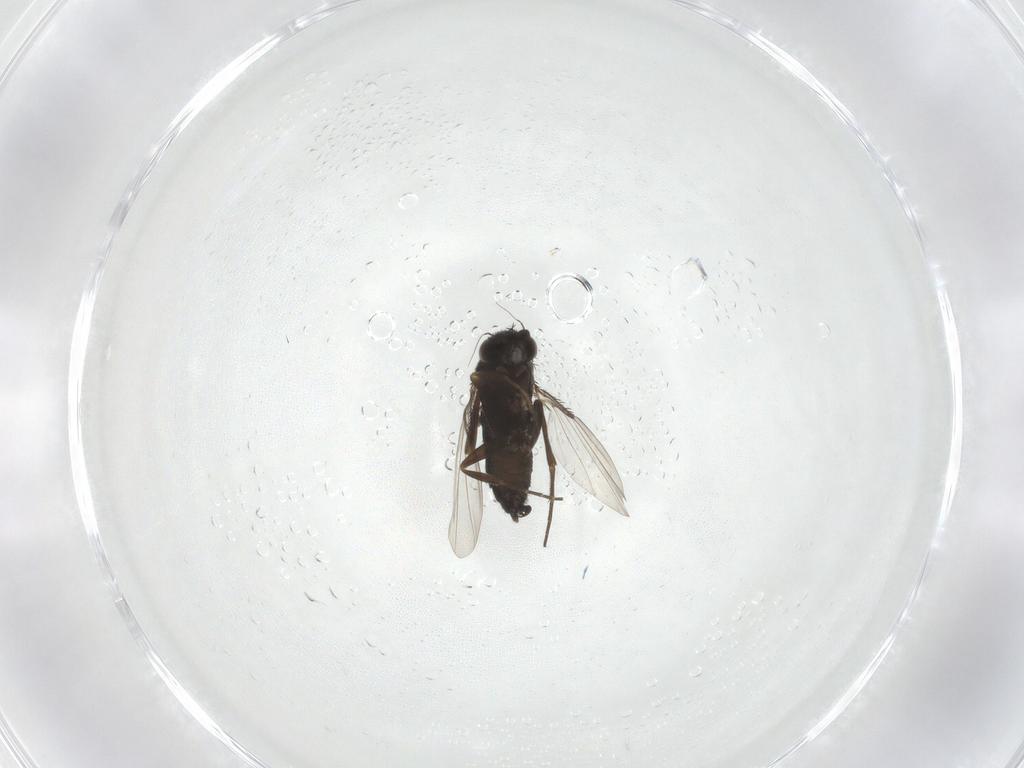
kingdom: Animalia
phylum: Arthropoda
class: Insecta
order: Diptera
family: Phoridae
